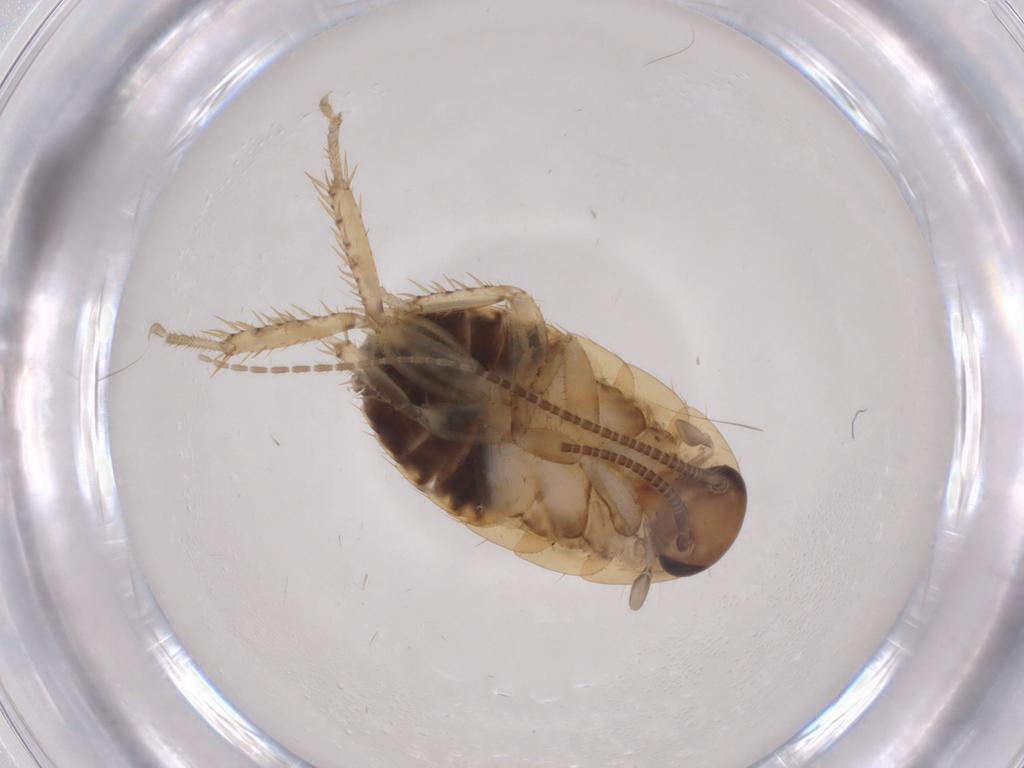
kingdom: Animalia
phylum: Arthropoda
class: Insecta
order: Blattodea
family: Ectobiidae
